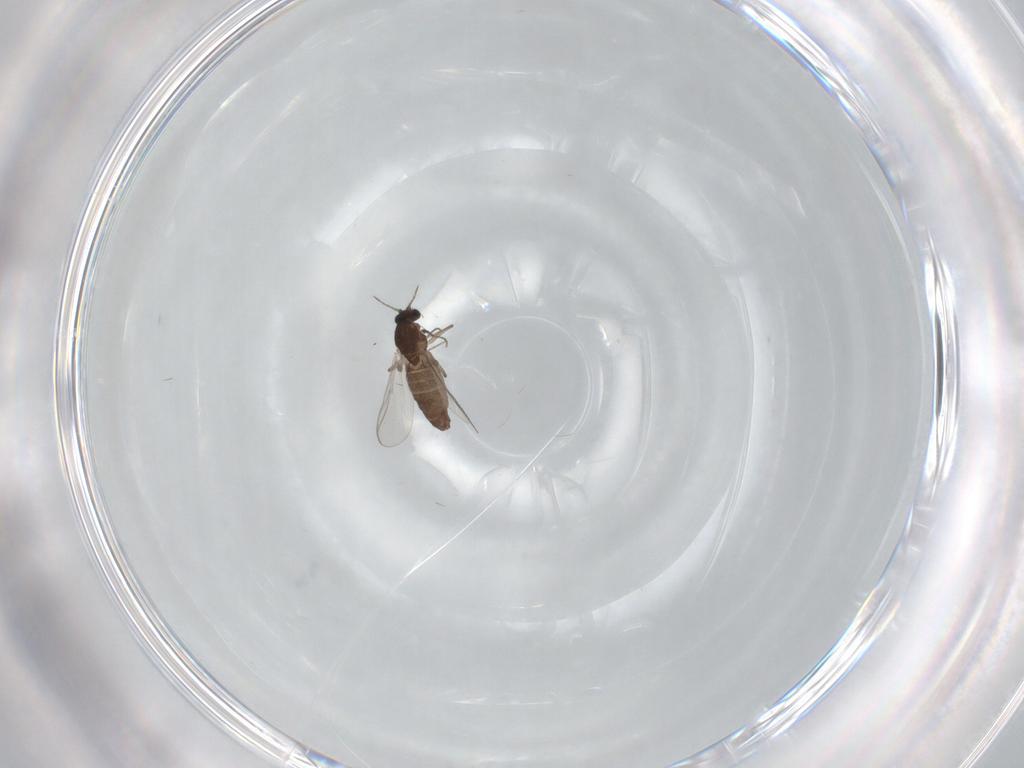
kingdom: Animalia
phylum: Arthropoda
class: Insecta
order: Diptera
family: Chironomidae
